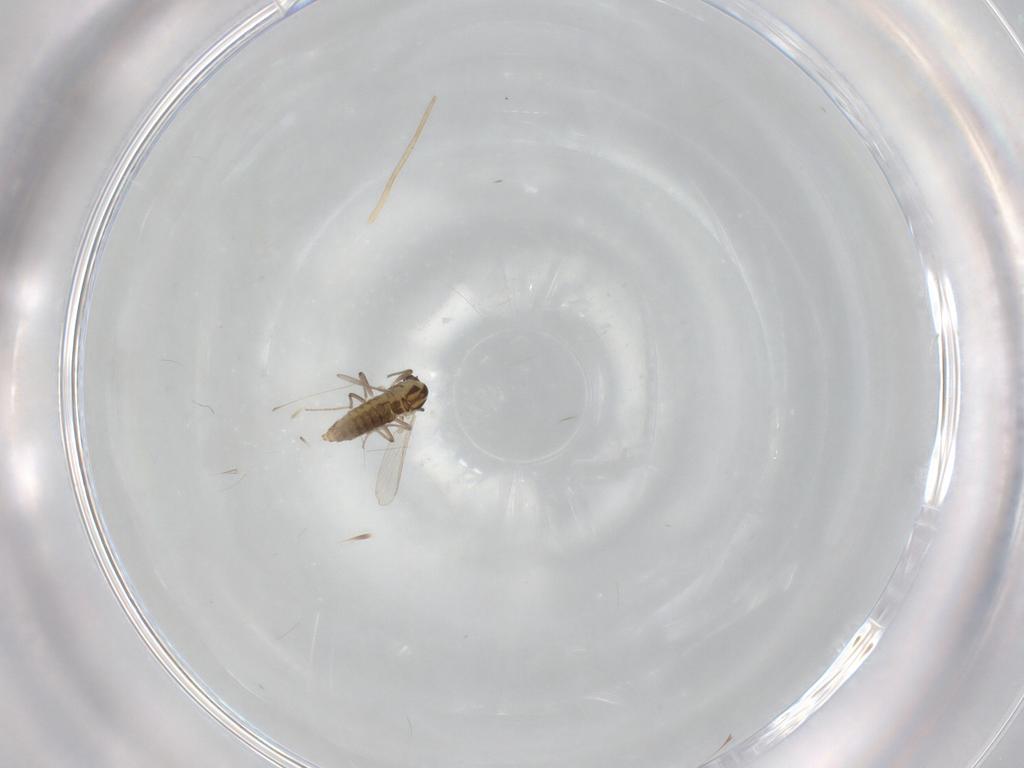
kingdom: Animalia
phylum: Arthropoda
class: Insecta
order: Diptera
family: Chironomidae
